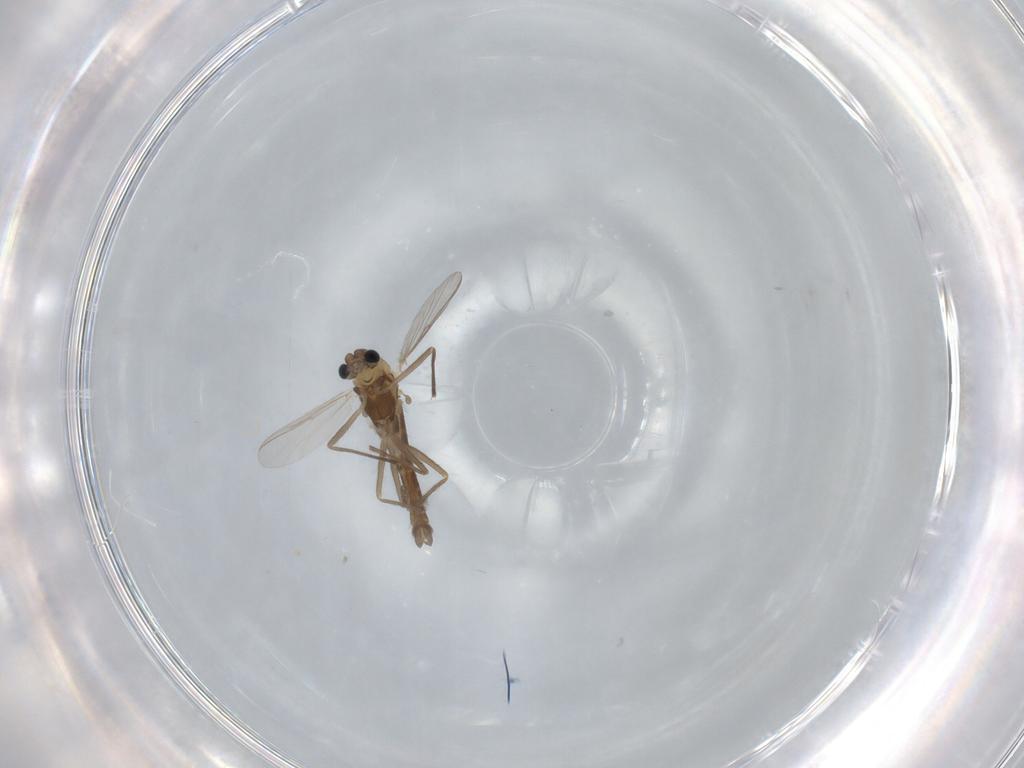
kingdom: Animalia
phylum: Arthropoda
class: Insecta
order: Diptera
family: Chironomidae
